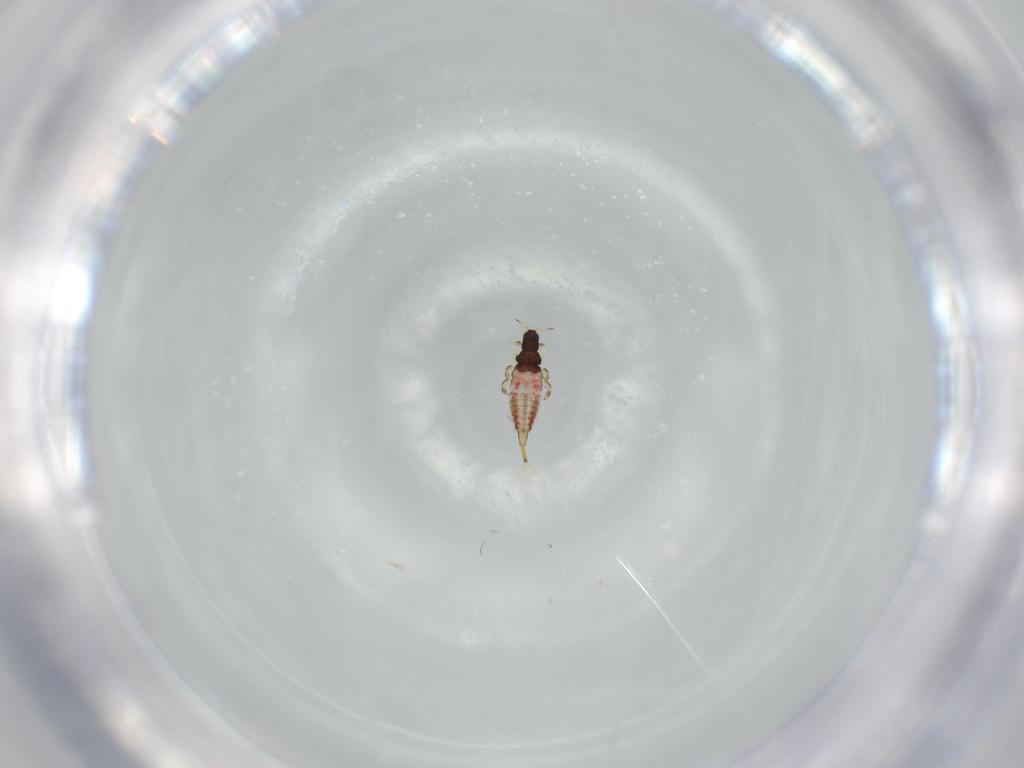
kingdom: Animalia
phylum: Arthropoda
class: Insecta
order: Thysanoptera
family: Phlaeothripidae
